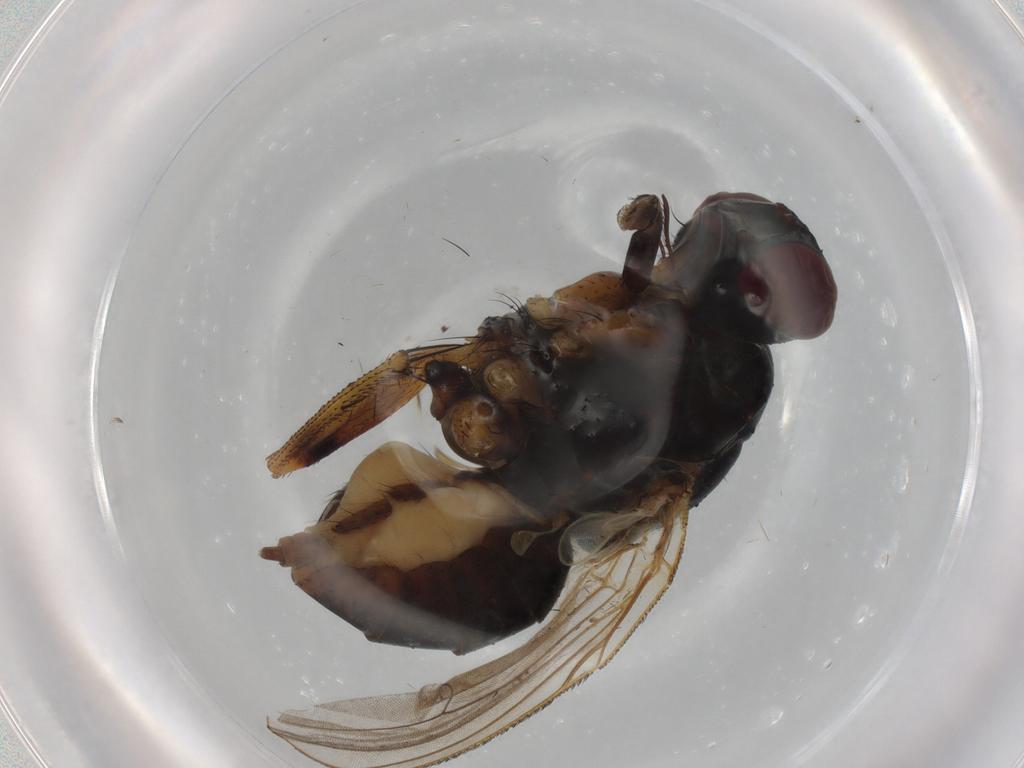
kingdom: Animalia
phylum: Arthropoda
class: Insecta
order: Diptera
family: Muscidae
